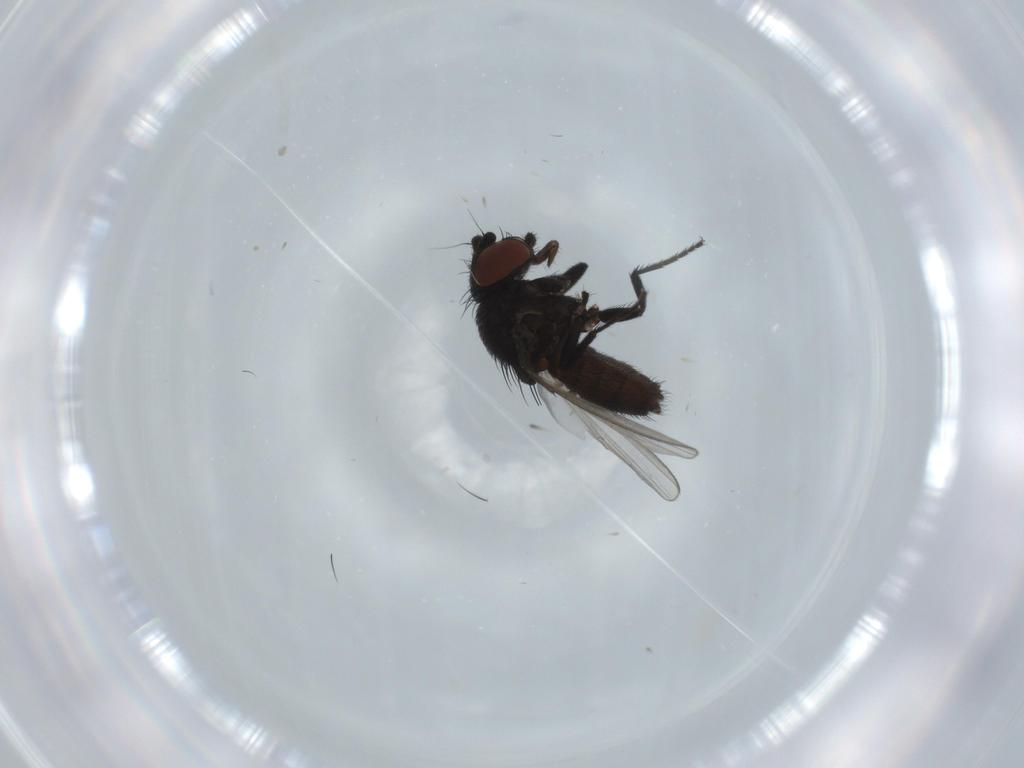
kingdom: Animalia
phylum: Arthropoda
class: Insecta
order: Diptera
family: Milichiidae
